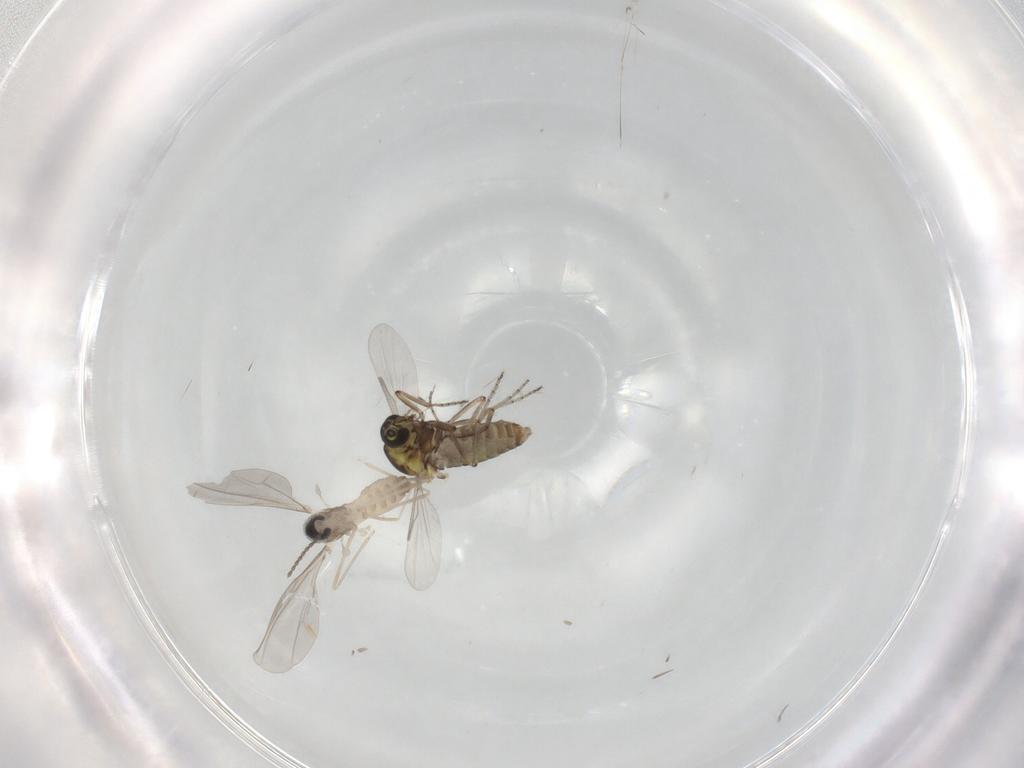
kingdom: Animalia
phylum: Arthropoda
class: Insecta
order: Diptera
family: Cecidomyiidae
